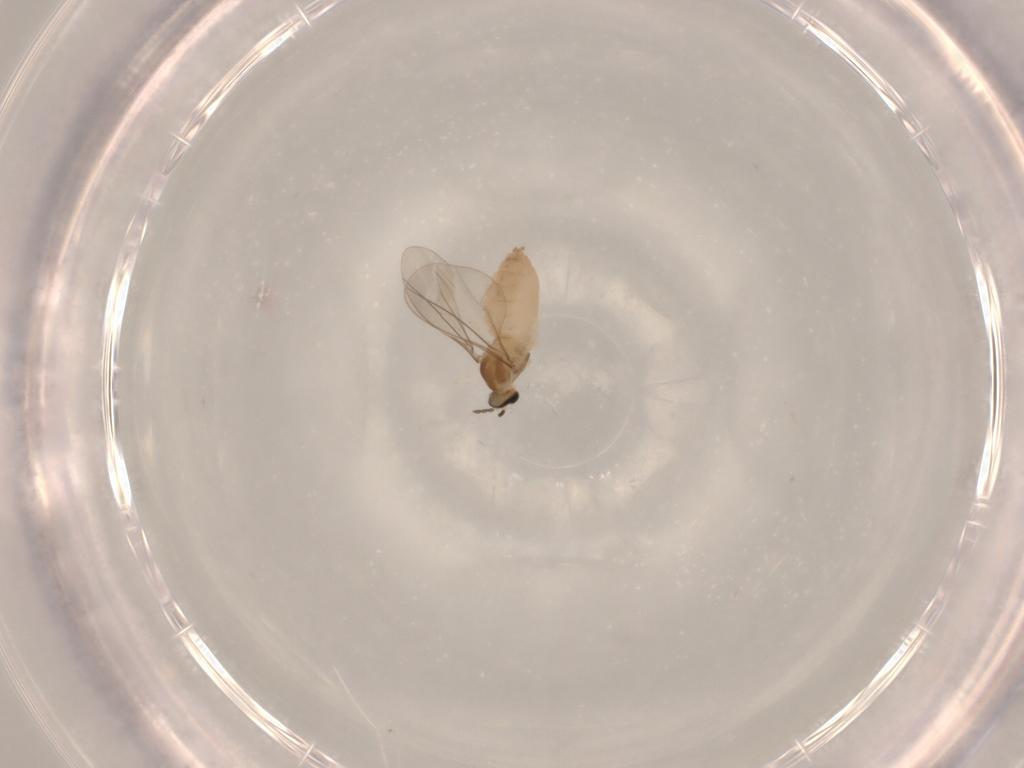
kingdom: Animalia
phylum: Arthropoda
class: Insecta
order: Diptera
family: Cecidomyiidae
